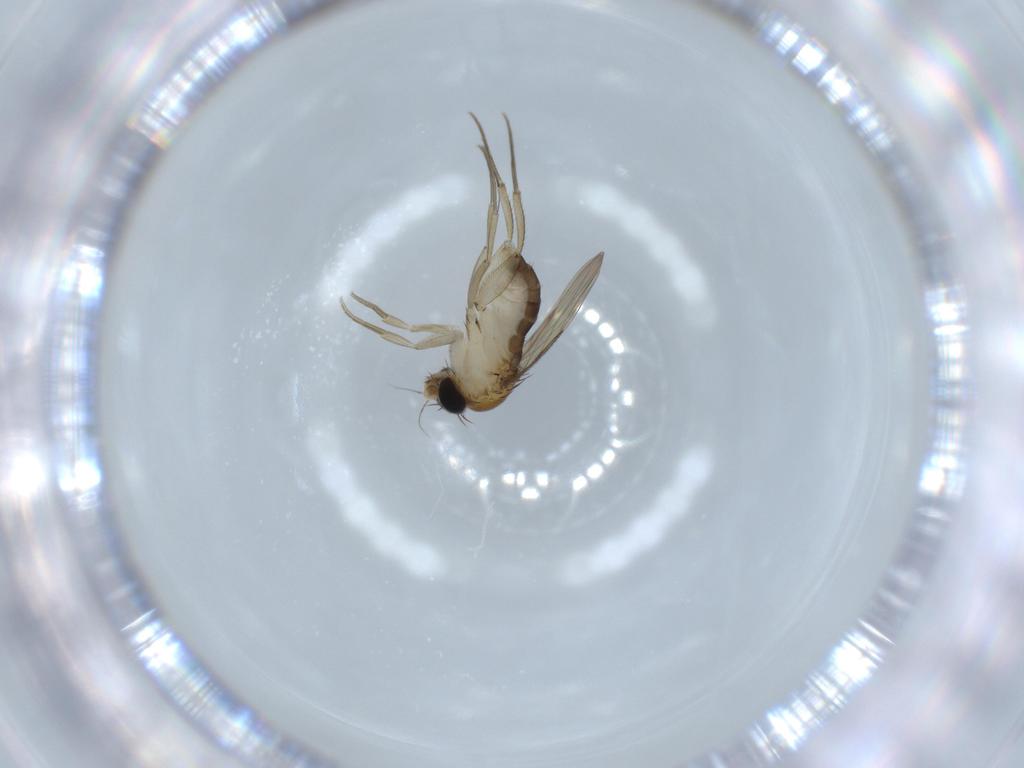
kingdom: Animalia
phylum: Arthropoda
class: Insecta
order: Diptera
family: Phoridae
